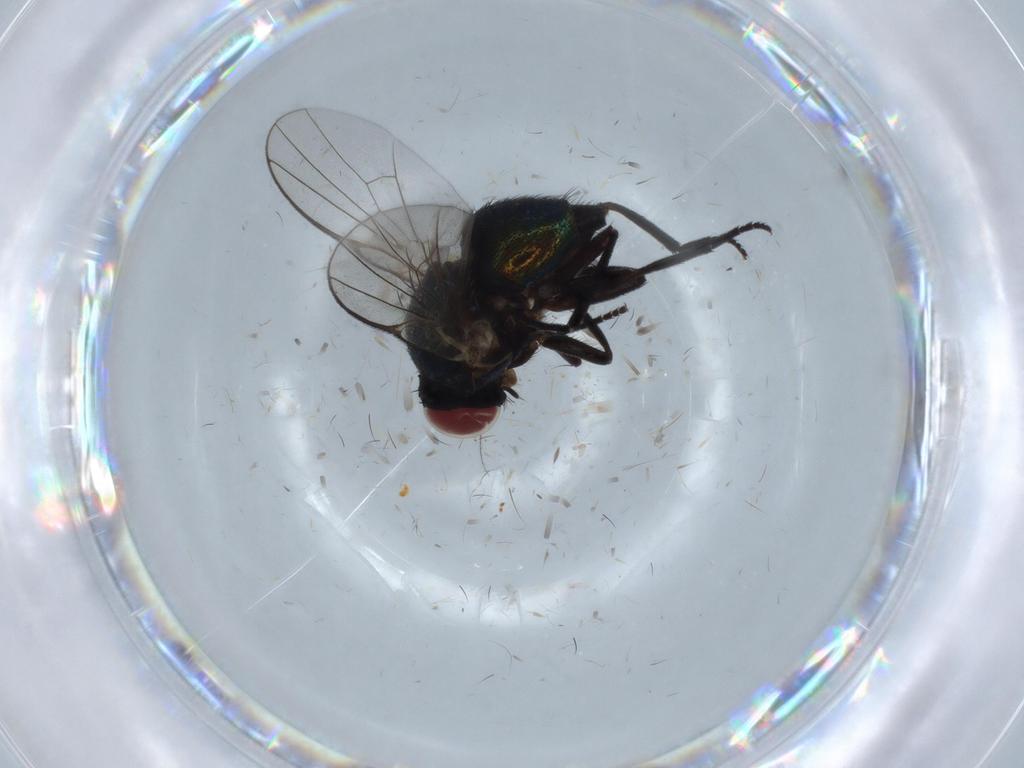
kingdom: Animalia
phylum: Arthropoda
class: Insecta
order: Diptera
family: Agromyzidae
